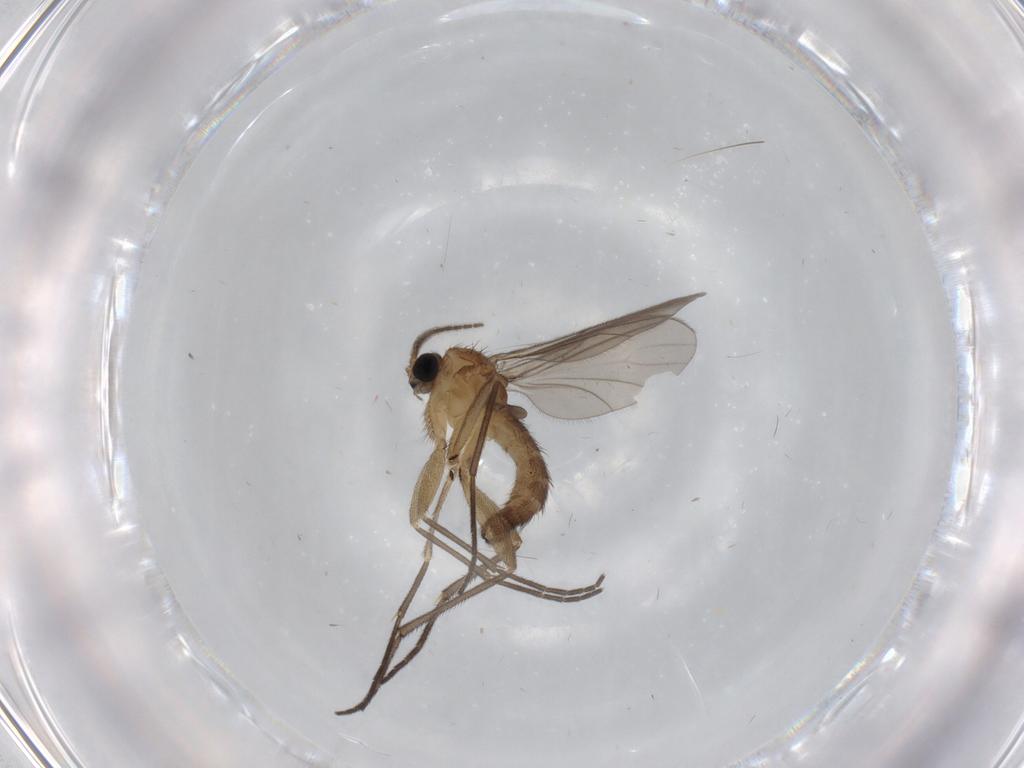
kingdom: Animalia
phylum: Arthropoda
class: Insecta
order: Diptera
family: Sciaridae
